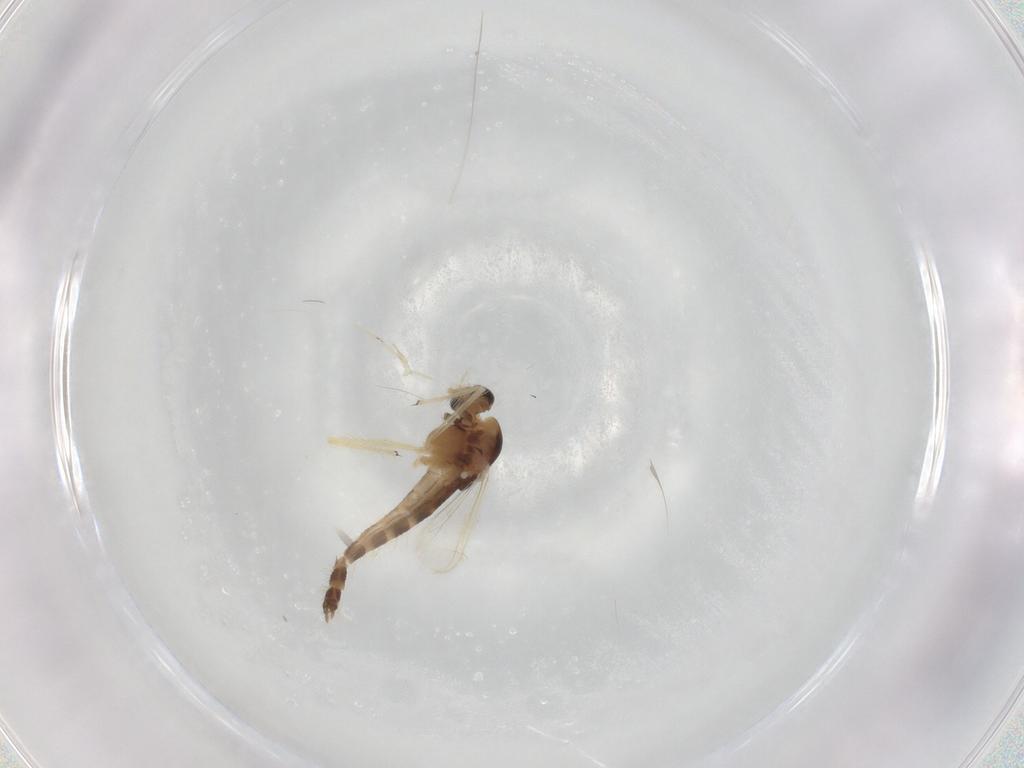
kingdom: Animalia
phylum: Arthropoda
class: Insecta
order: Diptera
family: Chironomidae
